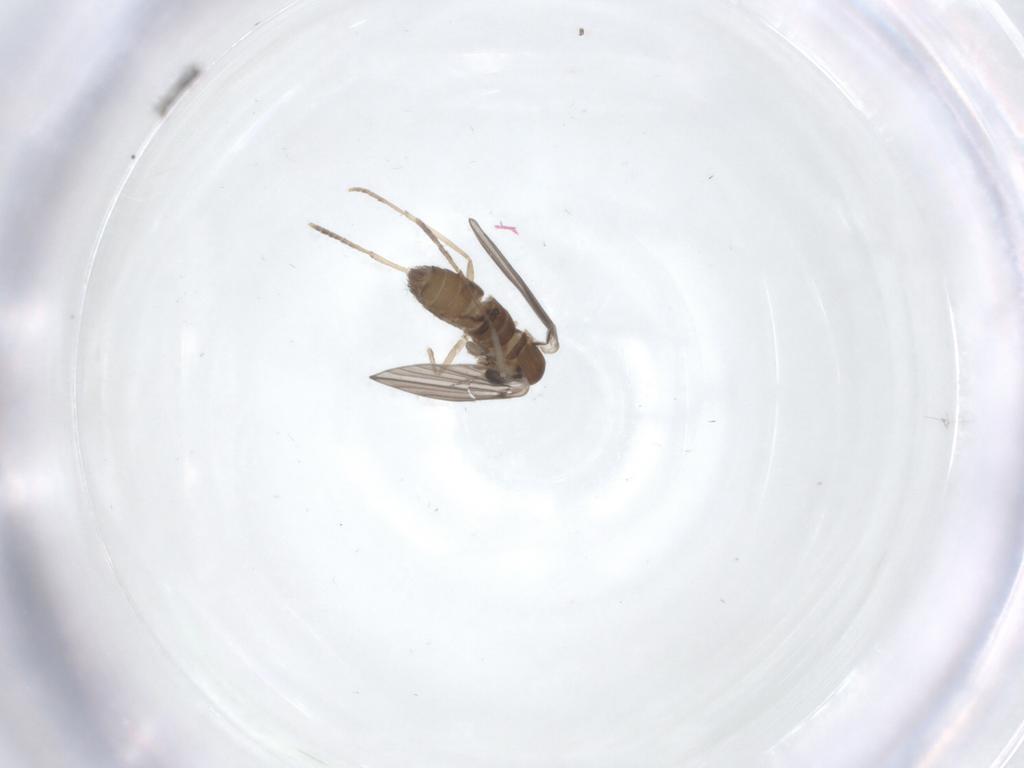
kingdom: Animalia
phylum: Arthropoda
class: Insecta
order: Diptera
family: Psychodidae
